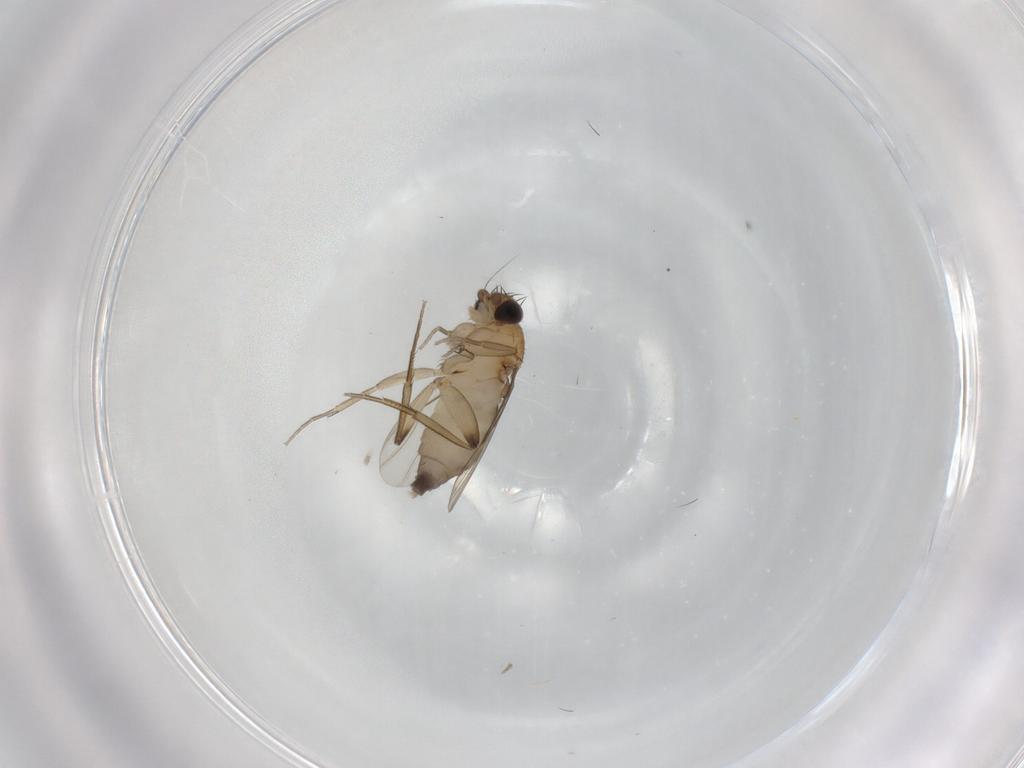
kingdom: Animalia
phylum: Arthropoda
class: Insecta
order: Diptera
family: Phoridae
